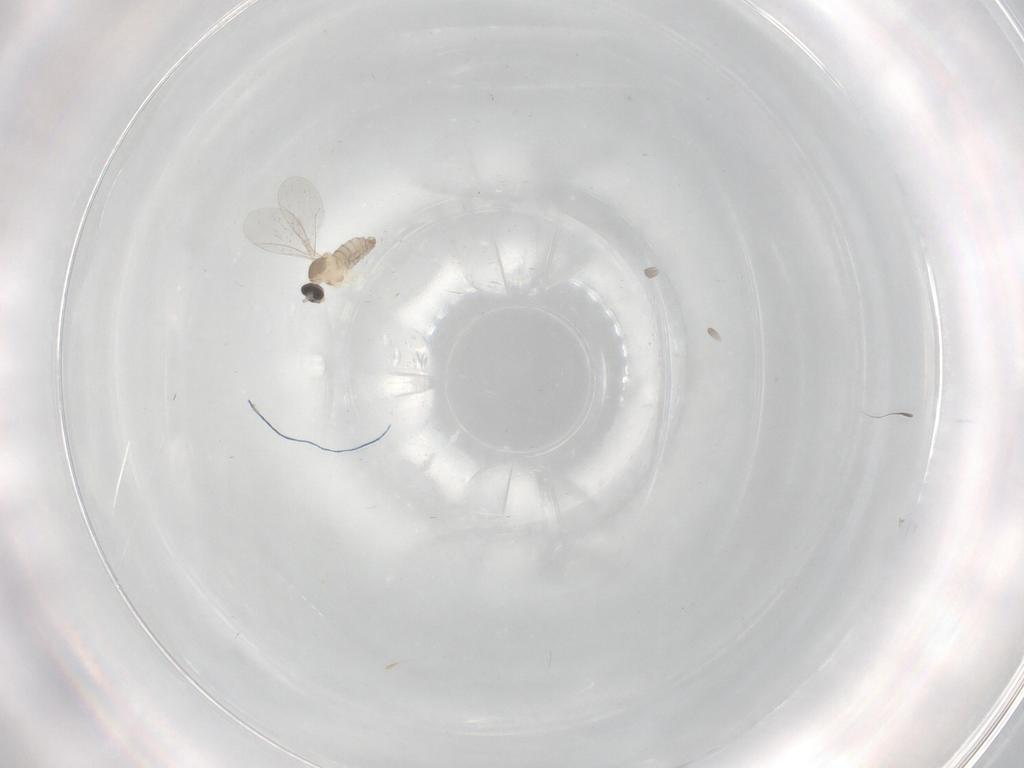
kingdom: Animalia
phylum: Arthropoda
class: Insecta
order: Diptera
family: Cecidomyiidae
